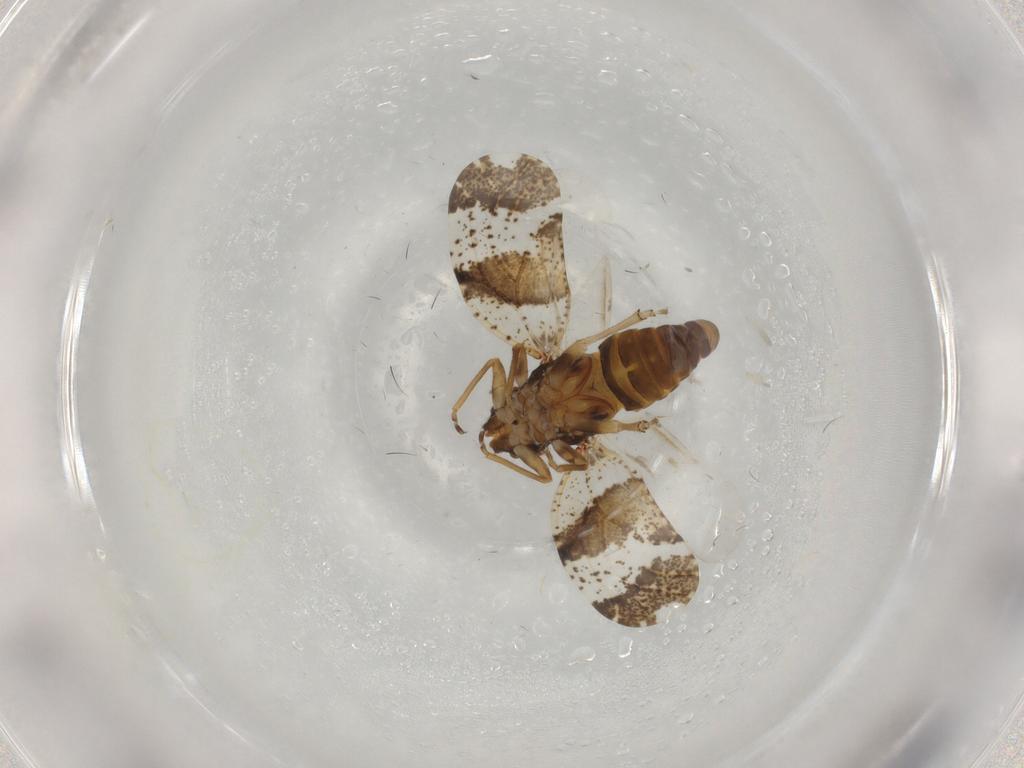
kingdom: Animalia
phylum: Arthropoda
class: Insecta
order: Hemiptera
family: Psyllidae
